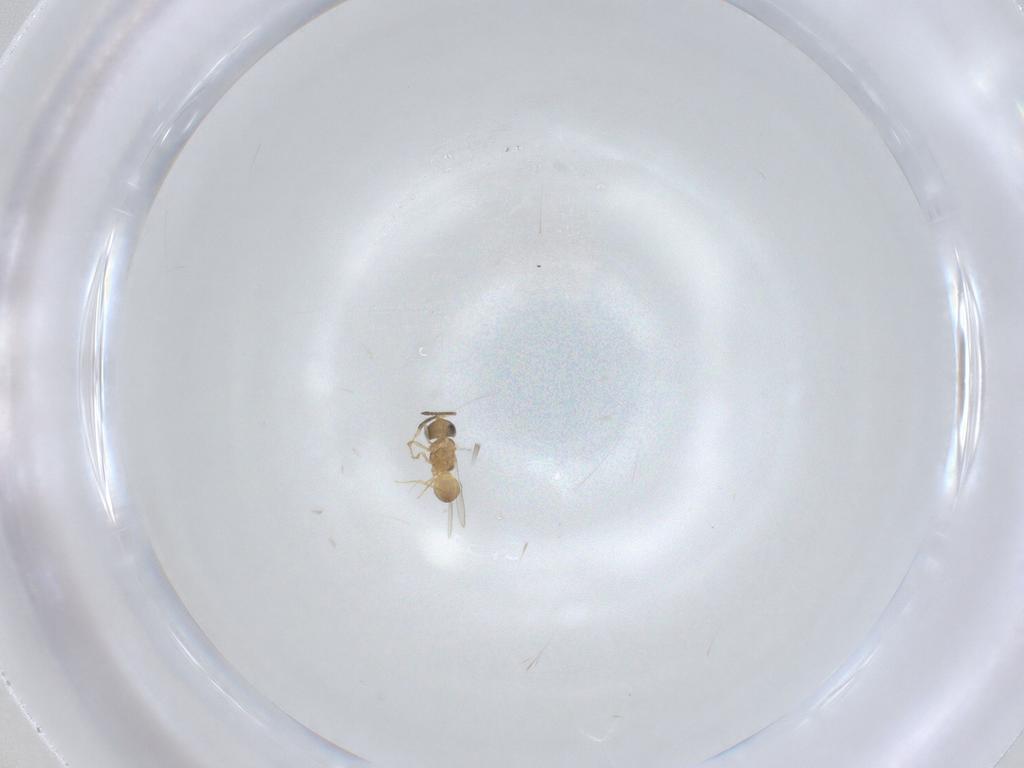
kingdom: Animalia
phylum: Arthropoda
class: Insecta
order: Hymenoptera
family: Scelionidae
